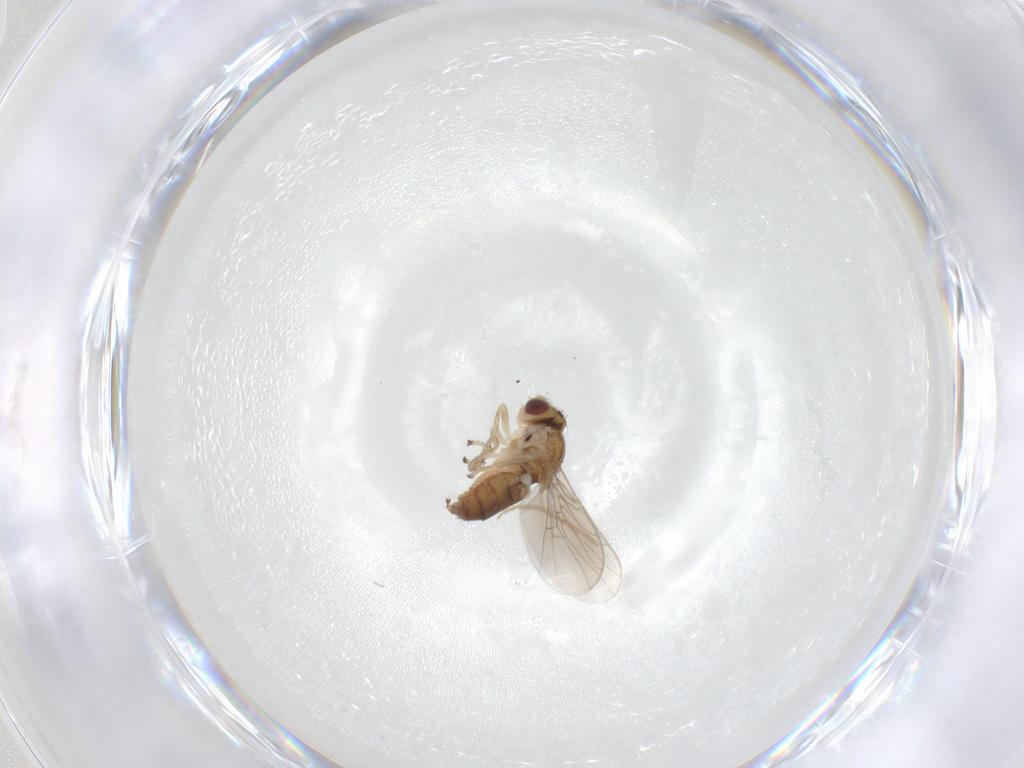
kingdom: Animalia
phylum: Arthropoda
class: Insecta
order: Diptera
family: Chloropidae
